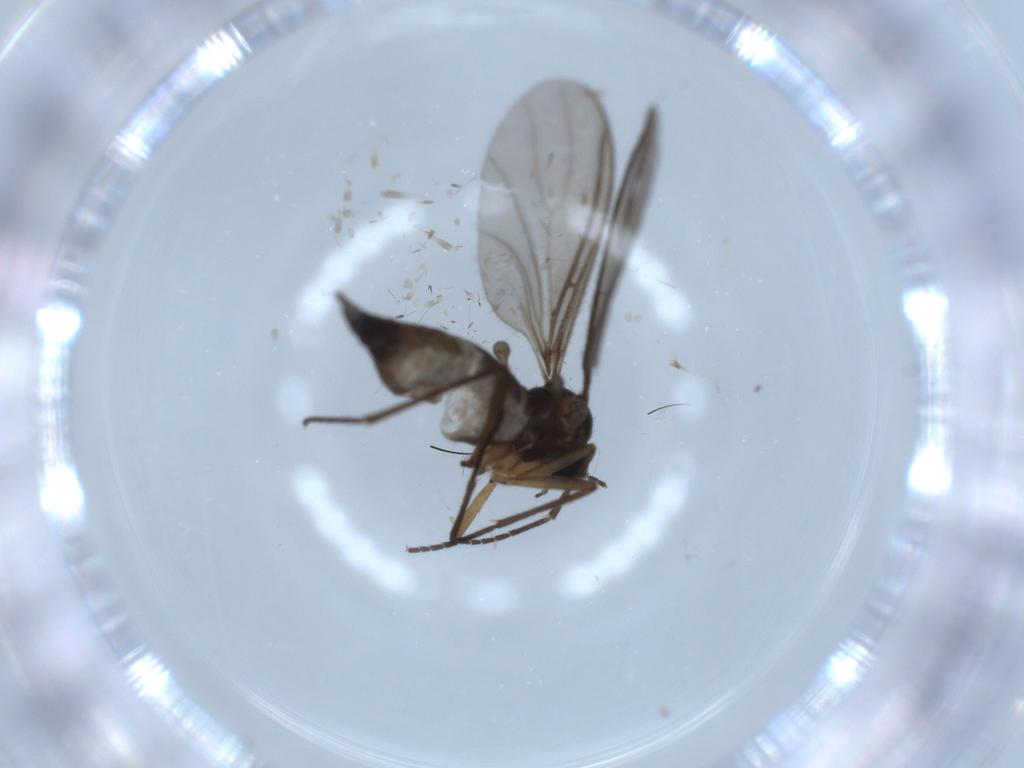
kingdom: Animalia
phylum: Arthropoda
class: Insecta
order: Diptera
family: Sciaridae
